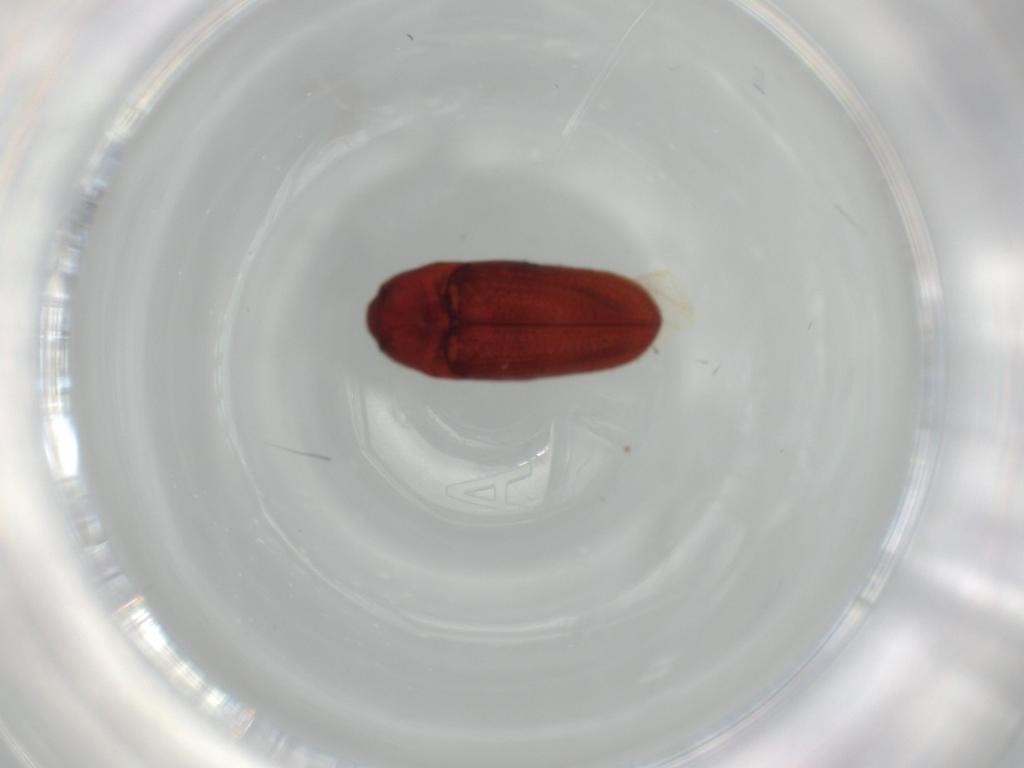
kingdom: Animalia
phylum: Arthropoda
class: Insecta
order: Coleoptera
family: Throscidae
